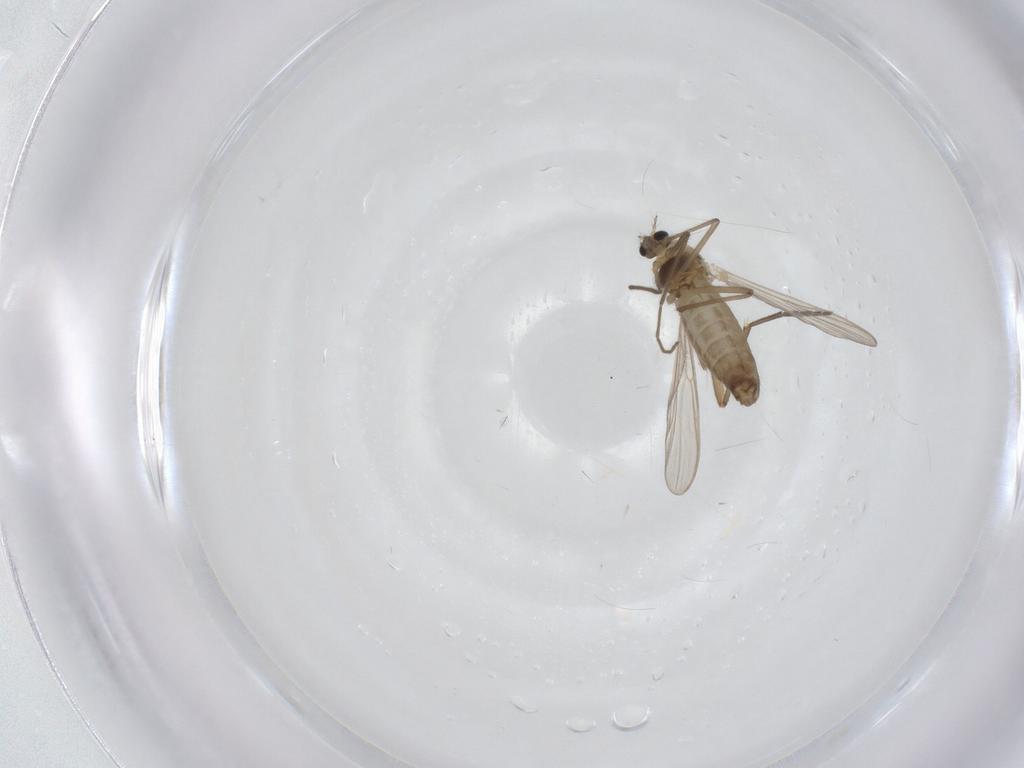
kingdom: Animalia
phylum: Arthropoda
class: Insecta
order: Diptera
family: Chironomidae
